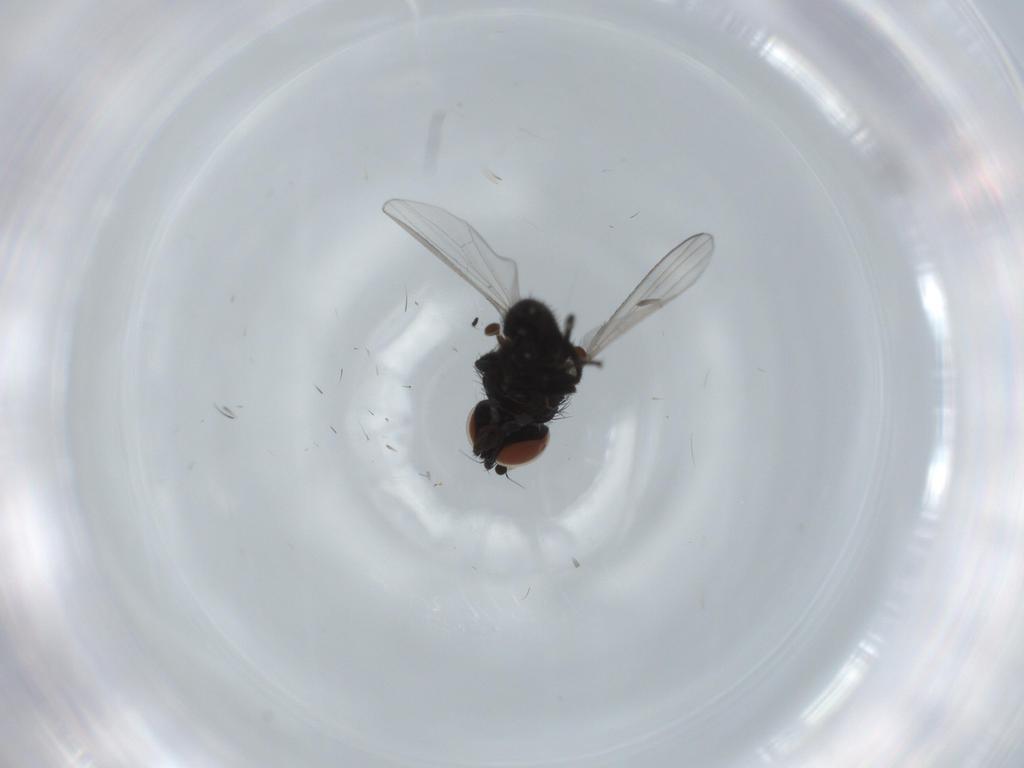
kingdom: Animalia
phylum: Arthropoda
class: Insecta
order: Diptera
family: Sciaridae
